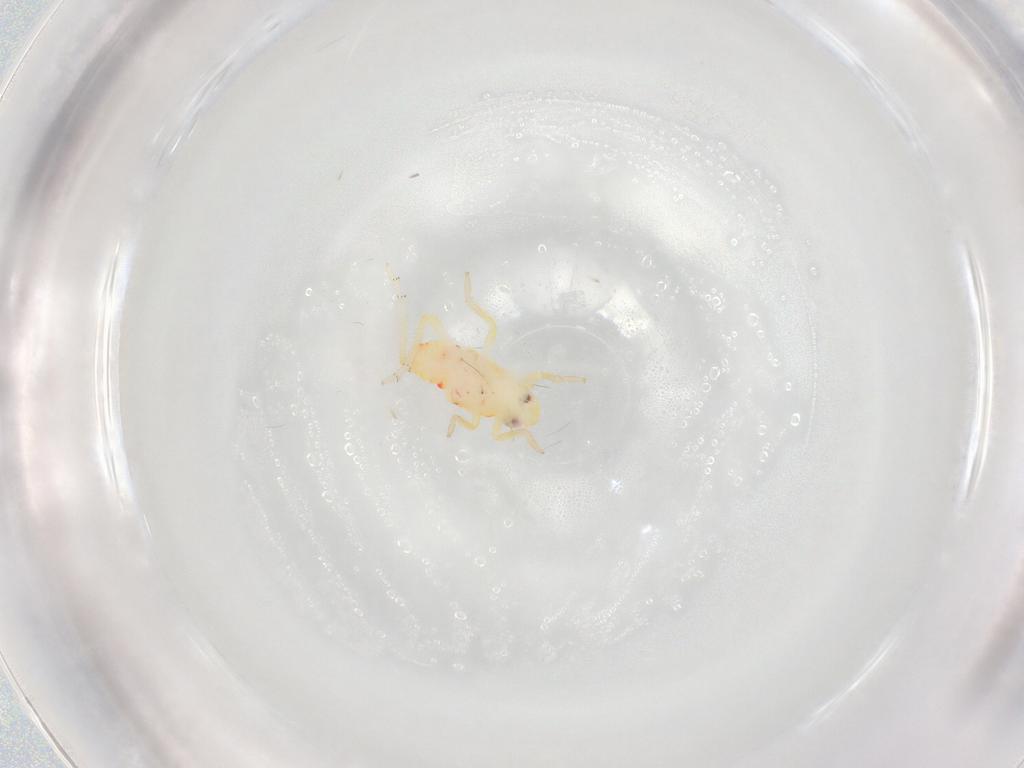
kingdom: Animalia
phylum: Arthropoda
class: Insecta
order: Hemiptera
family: Tropiduchidae
